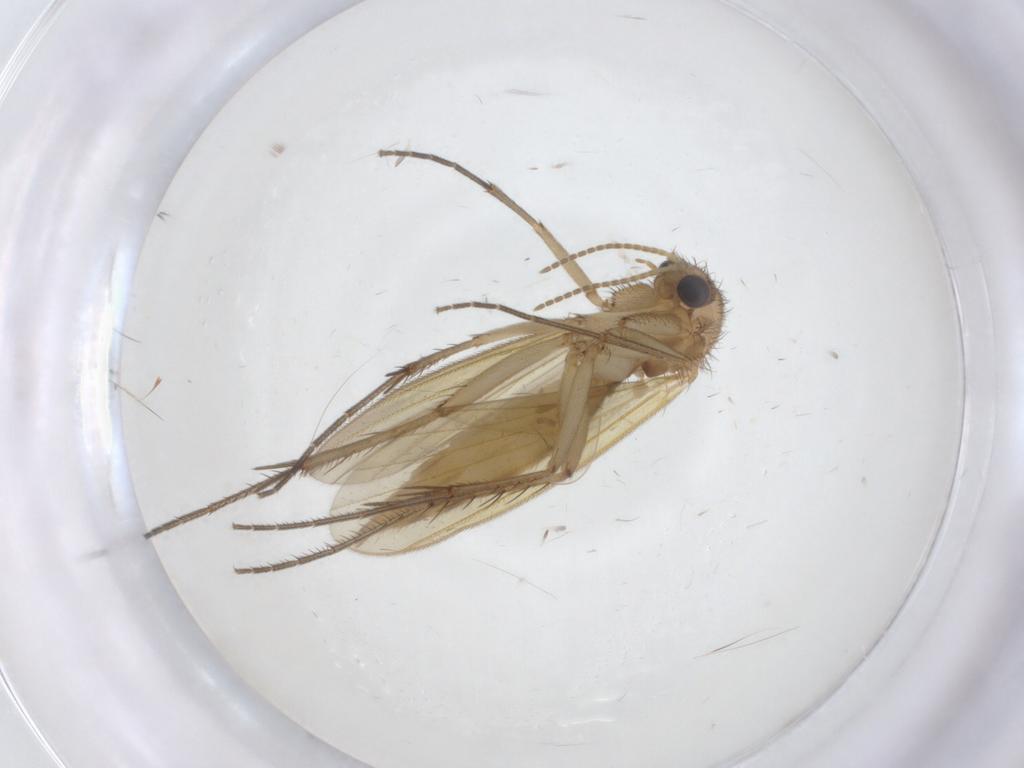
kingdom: Animalia
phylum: Arthropoda
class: Insecta
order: Diptera
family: Mycetophilidae
